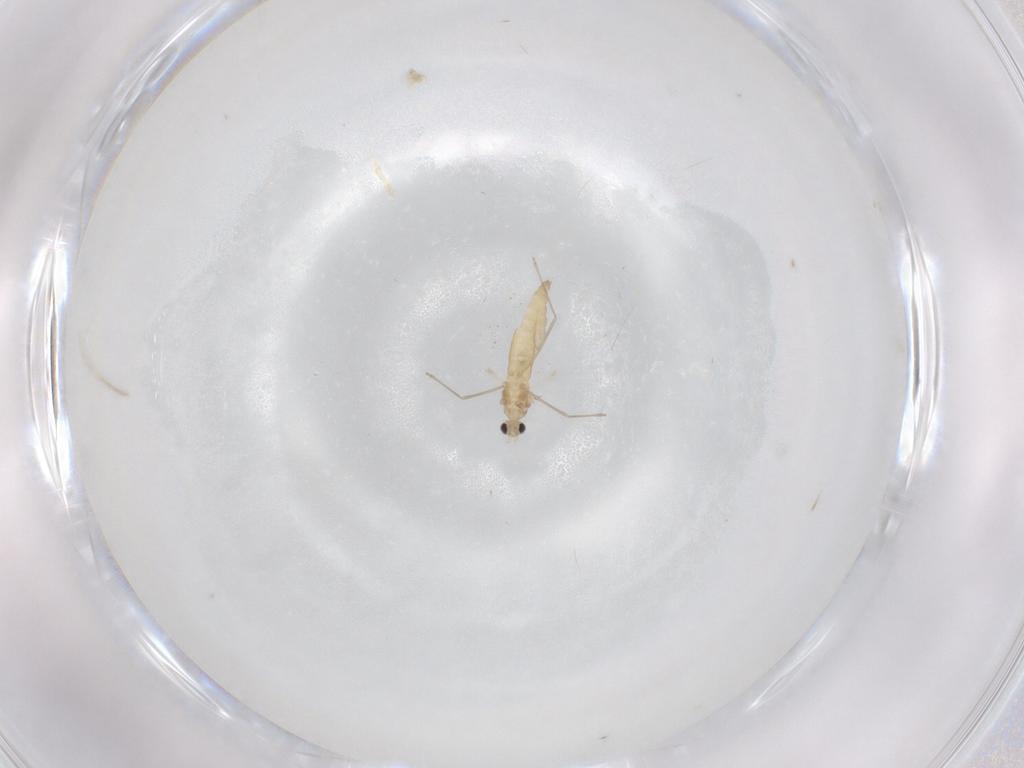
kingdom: Animalia
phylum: Arthropoda
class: Insecta
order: Diptera
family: Cecidomyiidae
